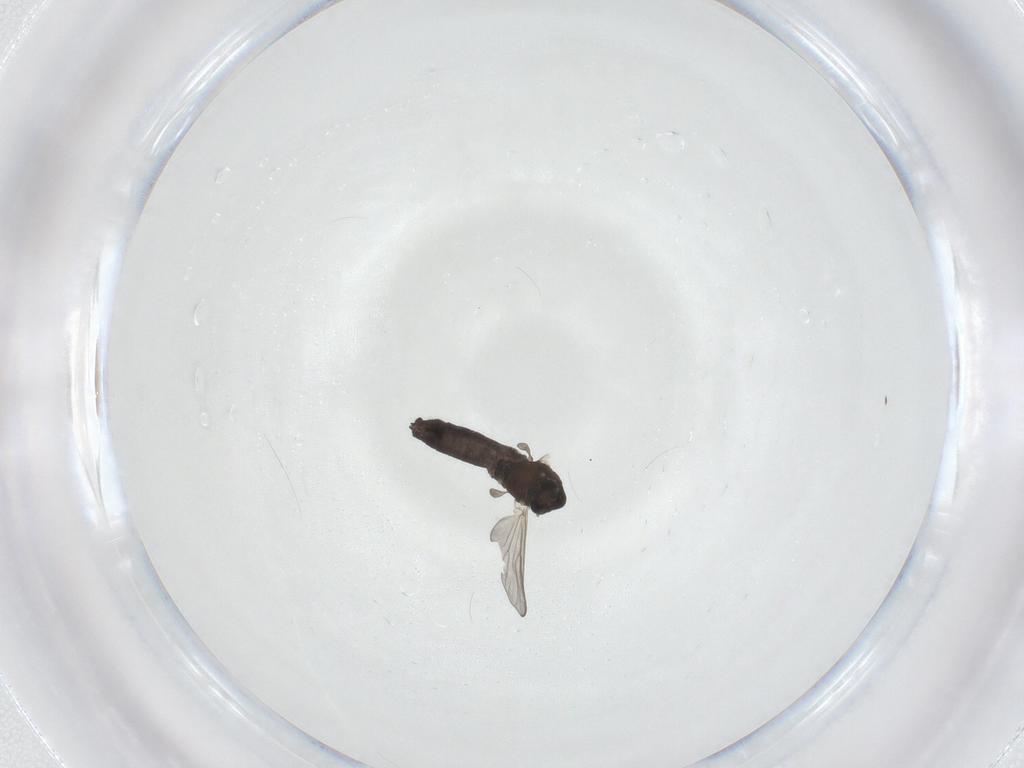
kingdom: Animalia
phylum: Arthropoda
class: Insecta
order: Diptera
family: Chironomidae
